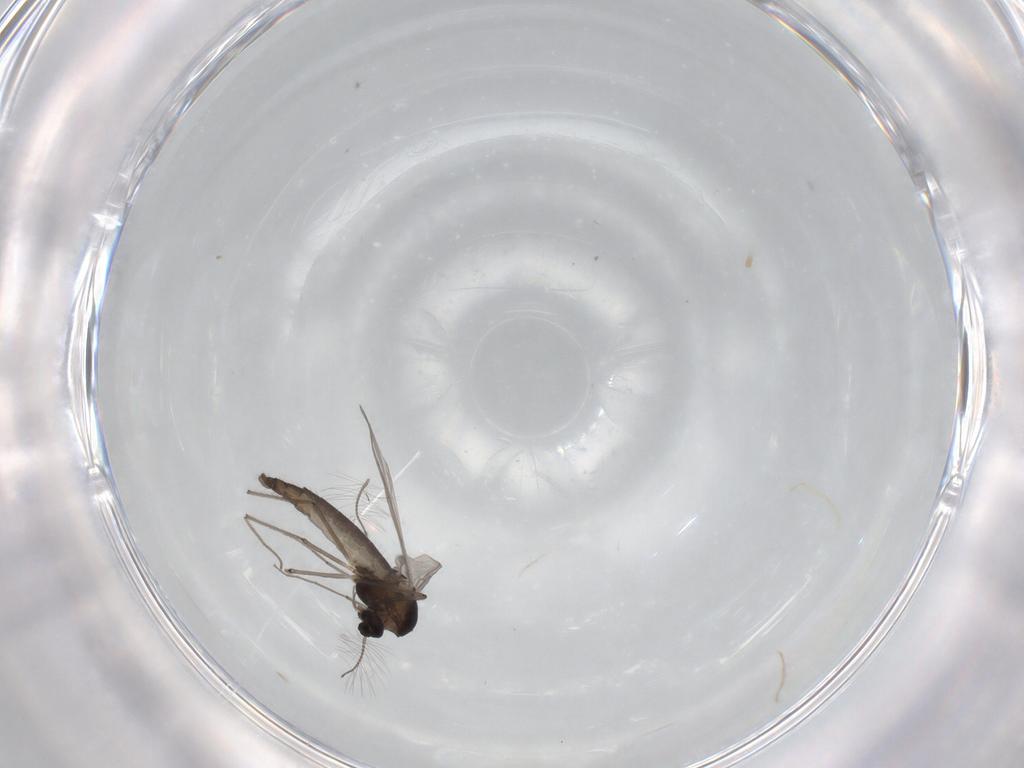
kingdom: Animalia
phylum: Arthropoda
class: Insecta
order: Diptera
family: Chironomidae
